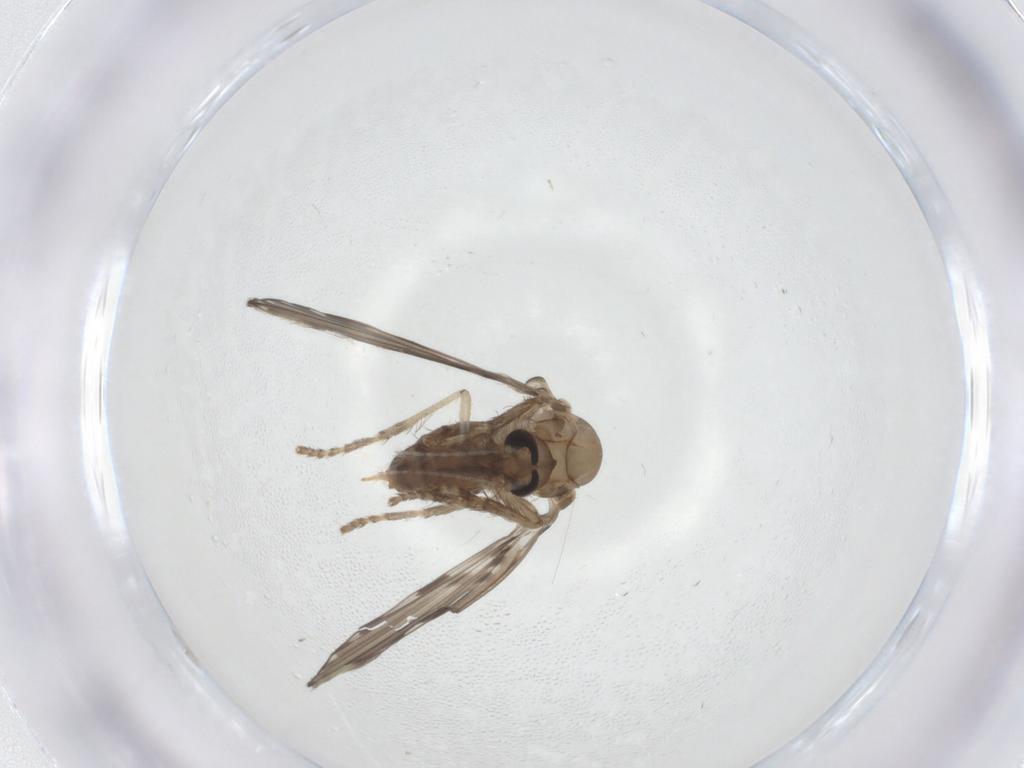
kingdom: Animalia
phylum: Arthropoda
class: Insecta
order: Diptera
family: Psychodidae
